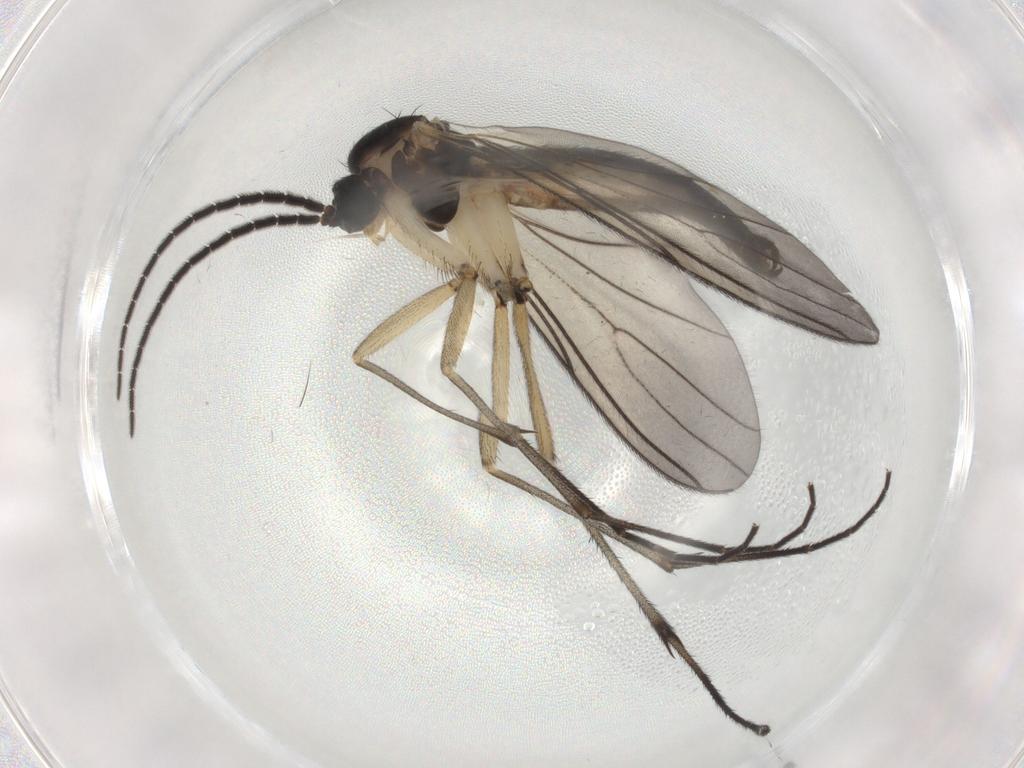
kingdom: Animalia
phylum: Arthropoda
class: Insecta
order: Diptera
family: Sciaridae
